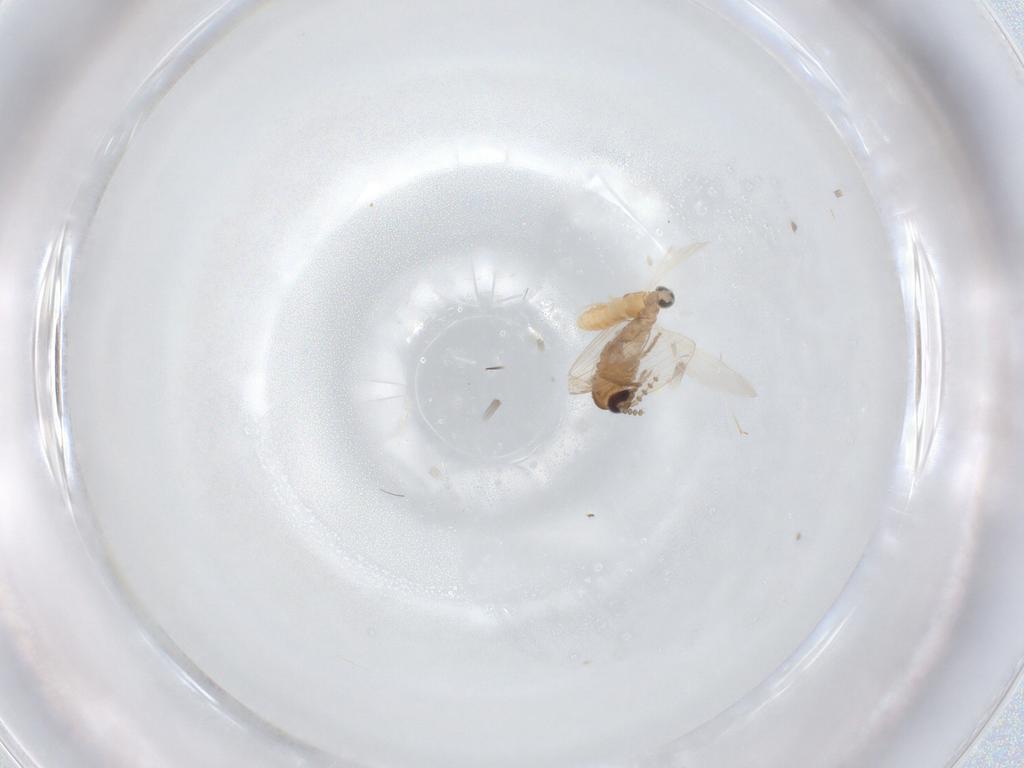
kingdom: Animalia
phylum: Arthropoda
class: Insecta
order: Diptera
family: Psychodidae
